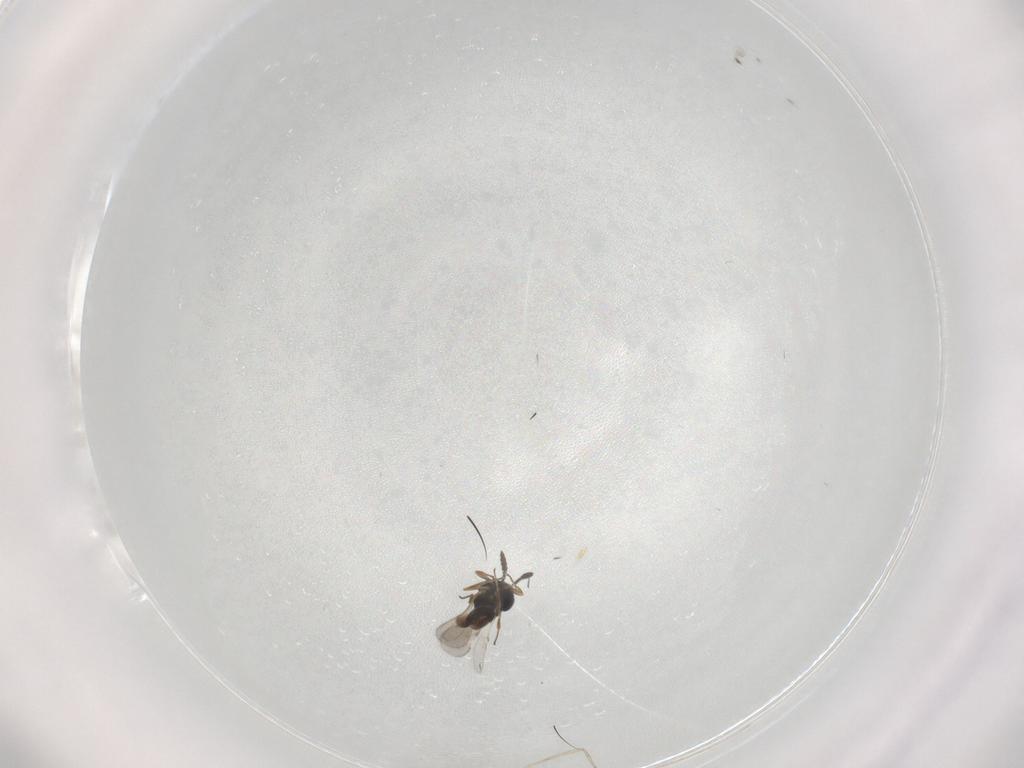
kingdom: Animalia
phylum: Arthropoda
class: Insecta
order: Hymenoptera
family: Scelionidae
